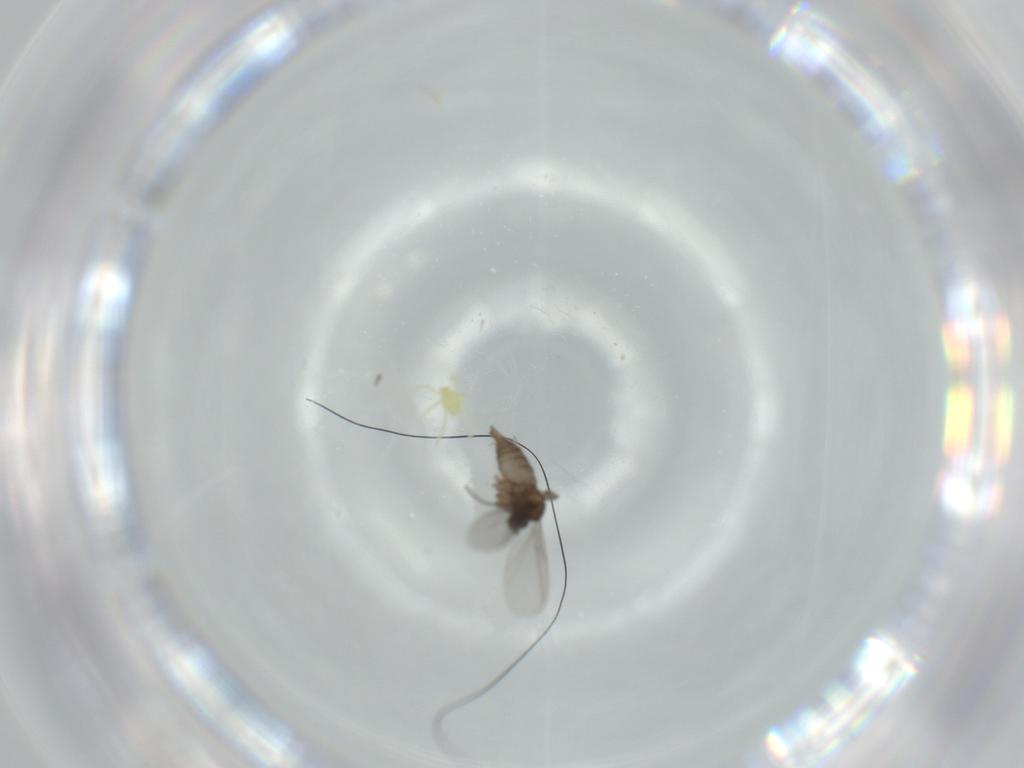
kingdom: Animalia
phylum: Arthropoda
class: Insecta
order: Diptera
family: Sciaridae
